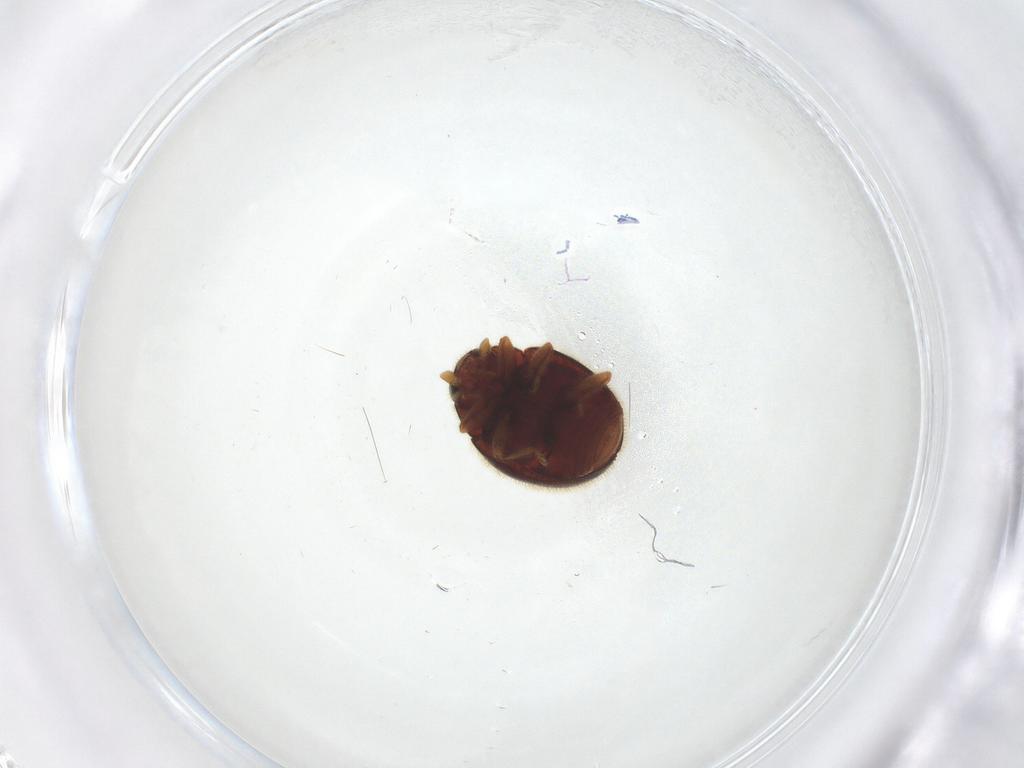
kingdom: Animalia
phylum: Arthropoda
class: Insecta
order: Coleoptera
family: Coccinellidae
